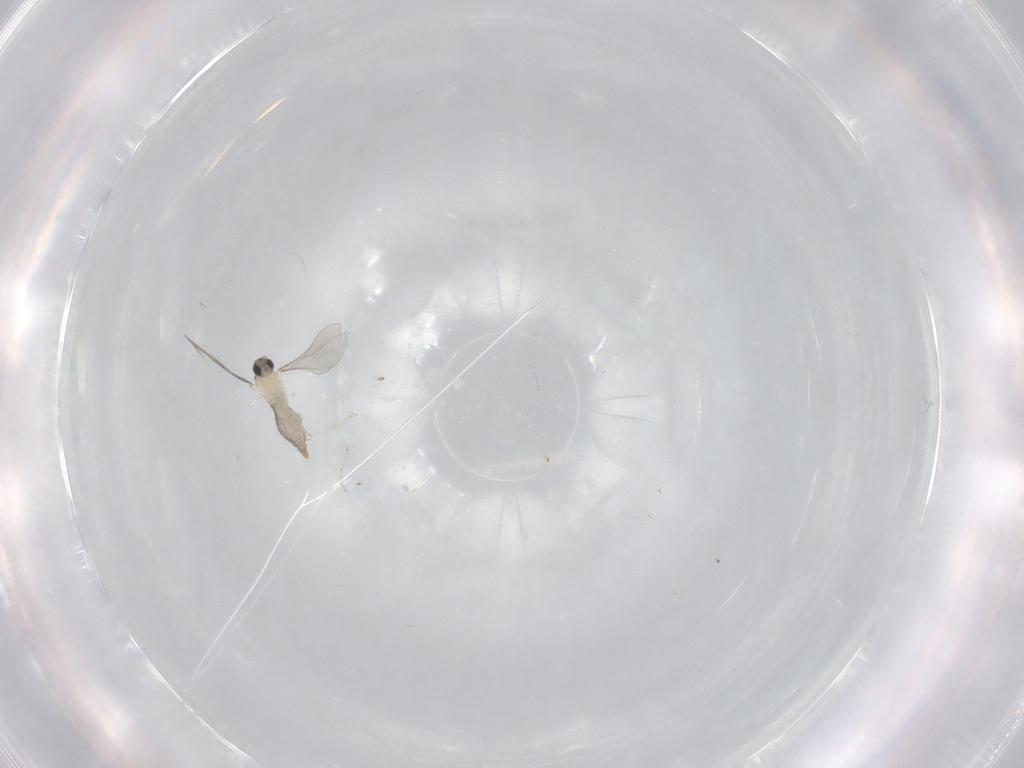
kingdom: Animalia
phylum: Arthropoda
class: Insecta
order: Diptera
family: Cecidomyiidae
